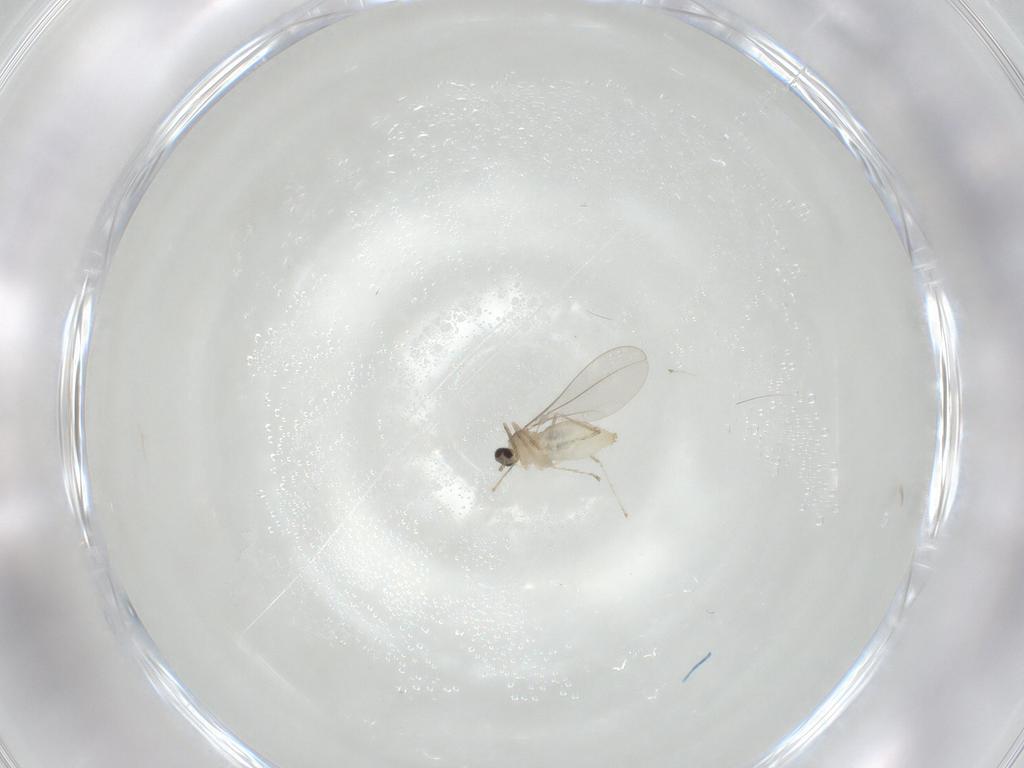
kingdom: Animalia
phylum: Arthropoda
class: Insecta
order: Diptera
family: Cecidomyiidae
